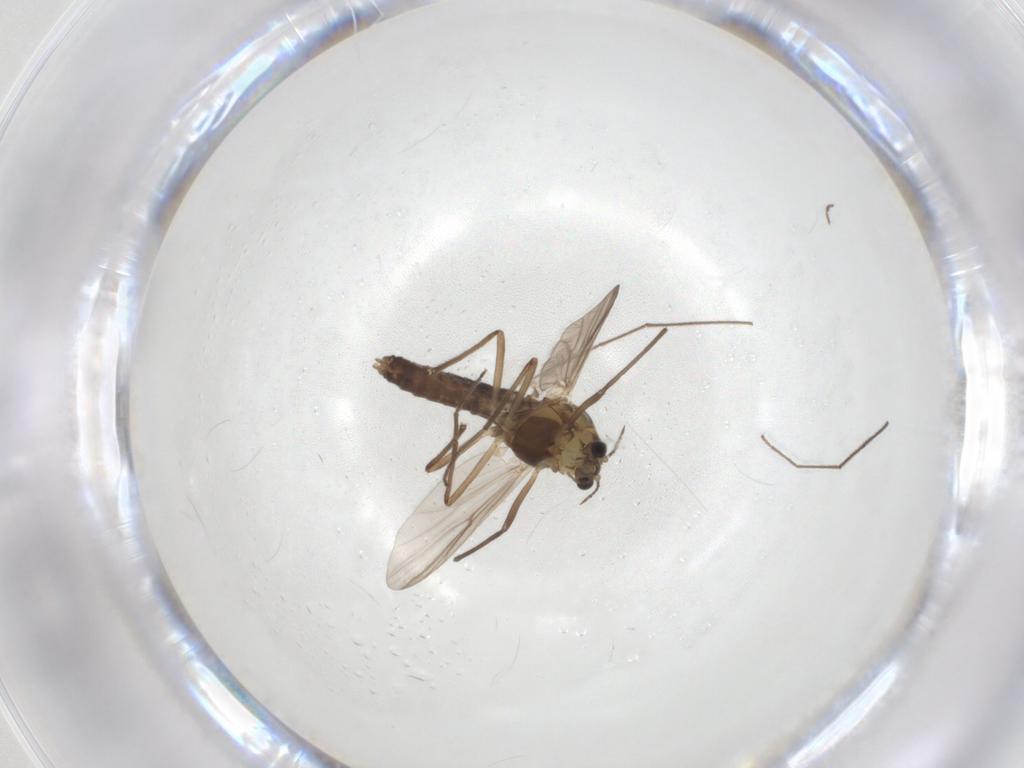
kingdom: Animalia
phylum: Arthropoda
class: Insecta
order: Diptera
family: Chironomidae
